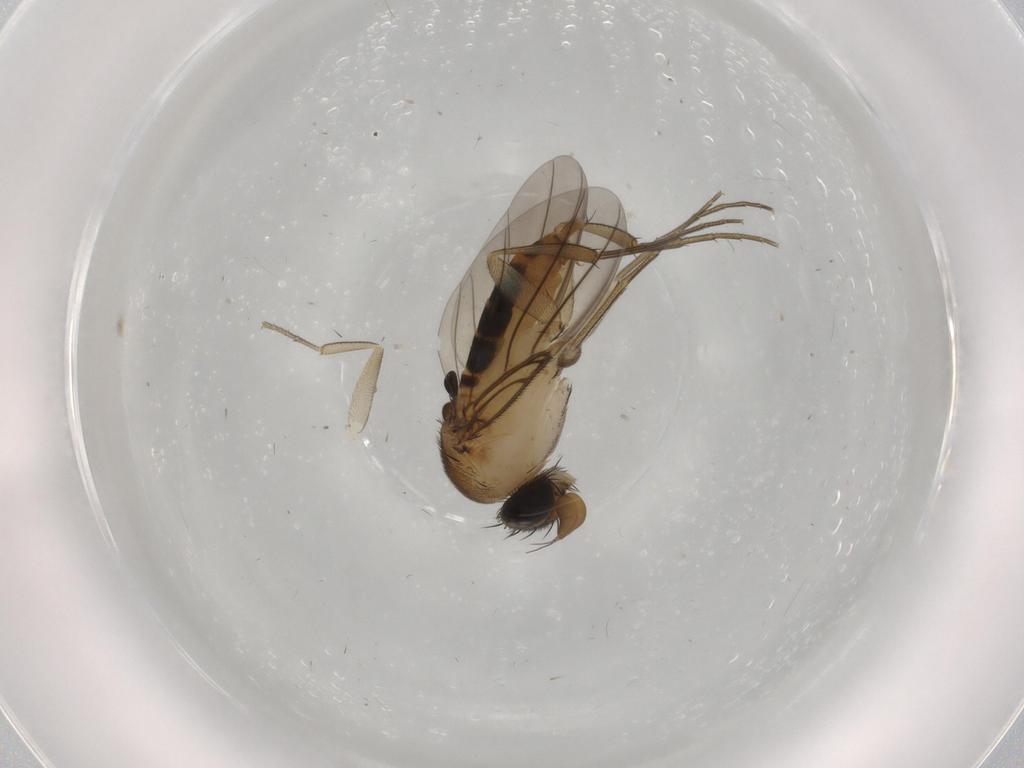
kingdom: Animalia
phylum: Arthropoda
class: Insecta
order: Diptera
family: Phoridae
